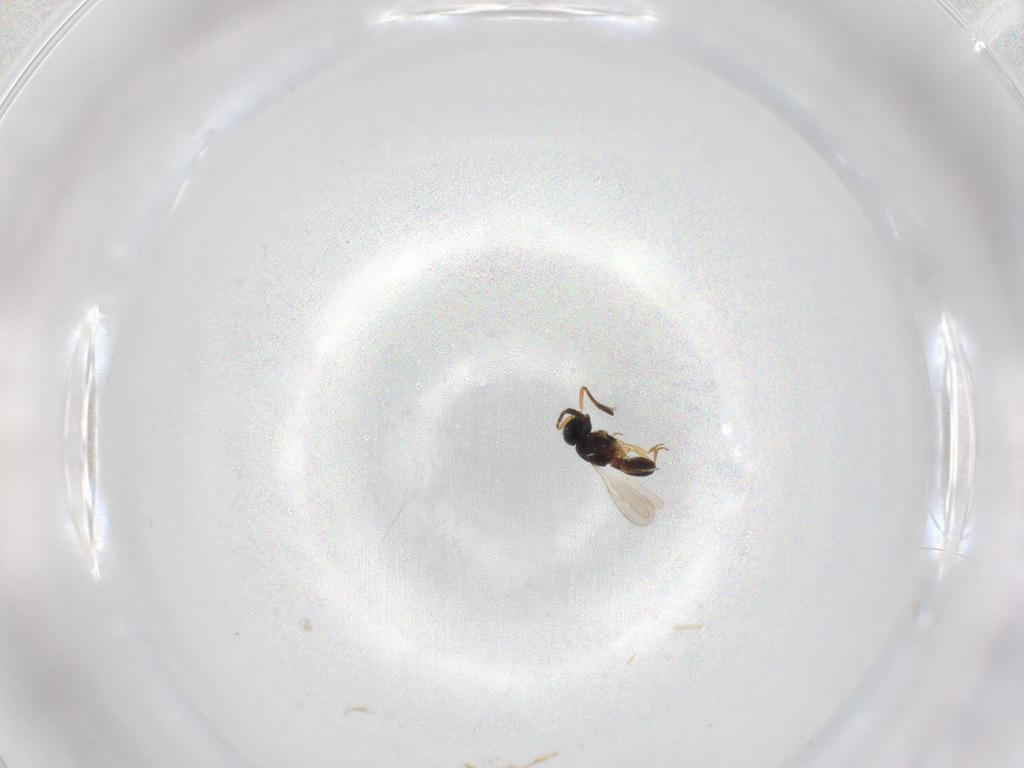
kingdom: Animalia
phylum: Arthropoda
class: Insecta
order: Hymenoptera
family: Scelionidae
